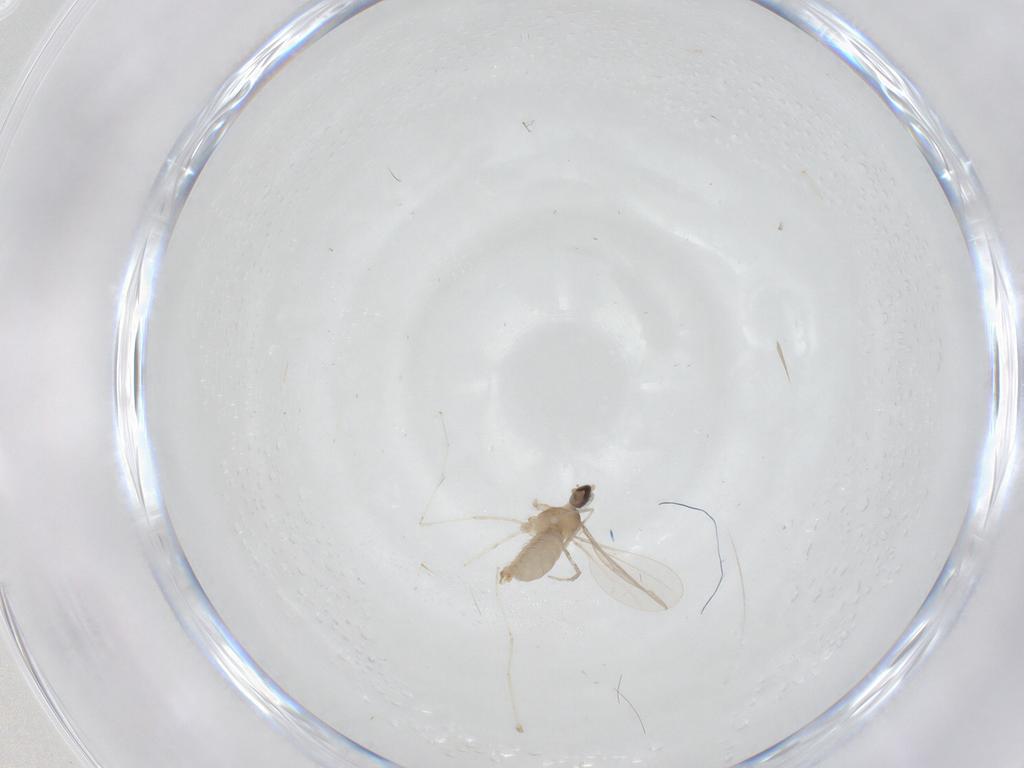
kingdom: Animalia
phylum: Arthropoda
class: Insecta
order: Diptera
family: Cecidomyiidae
